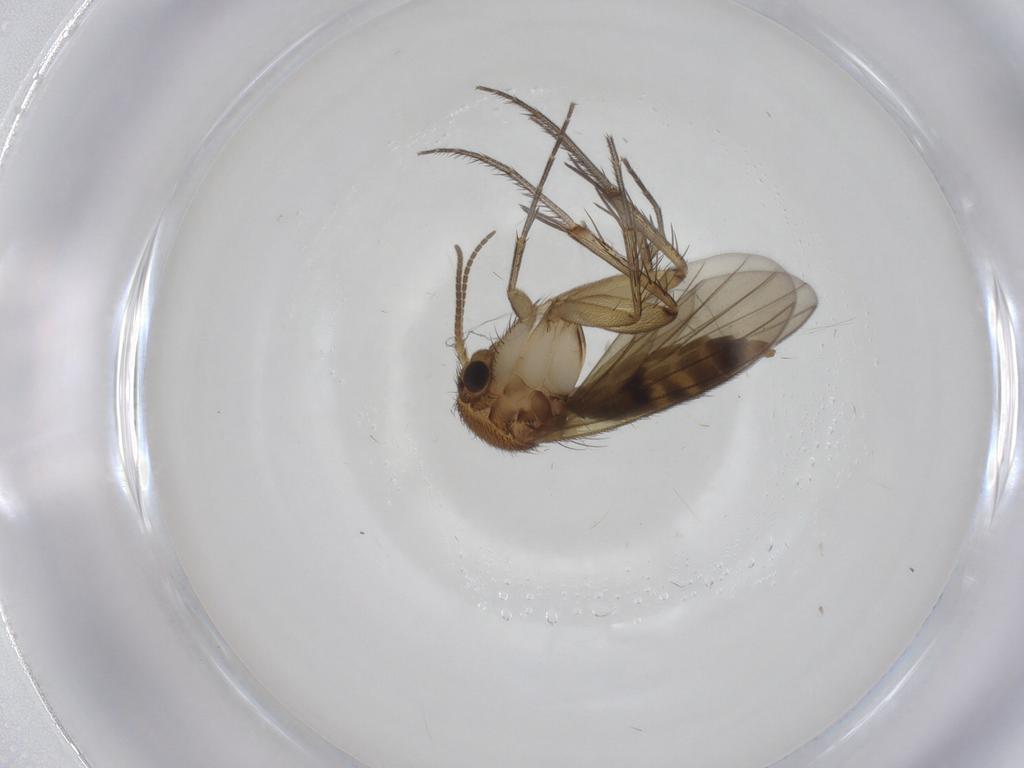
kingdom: Animalia
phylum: Arthropoda
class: Insecta
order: Diptera
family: Mycetophilidae
